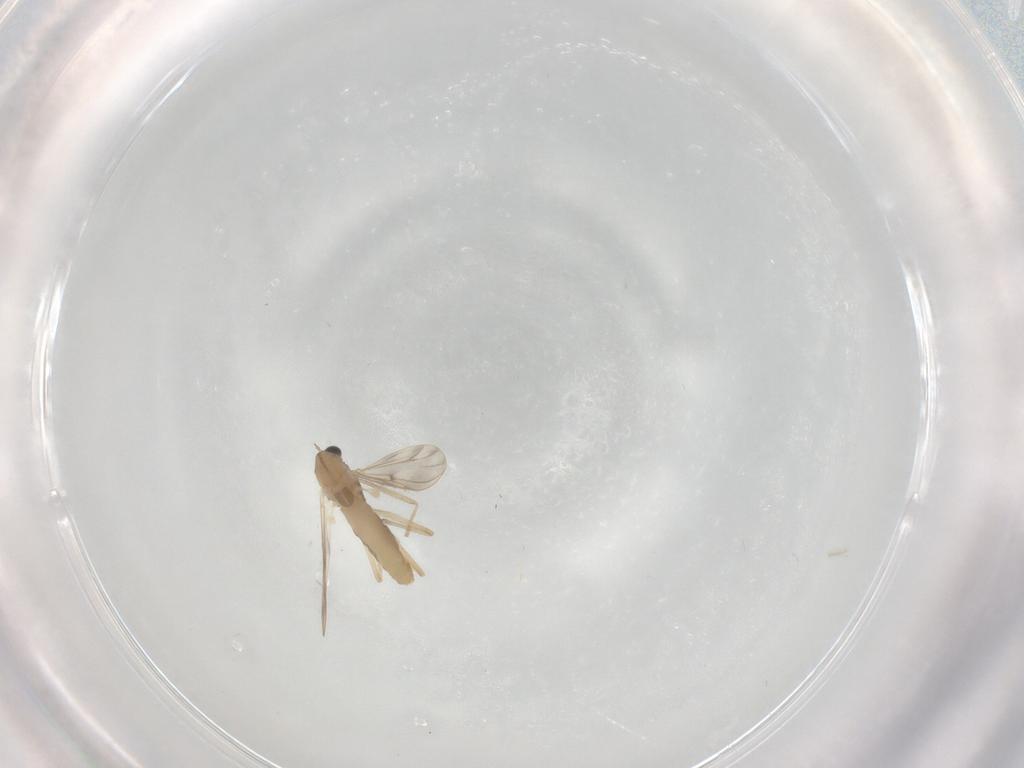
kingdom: Animalia
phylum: Arthropoda
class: Insecta
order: Diptera
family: Chironomidae
